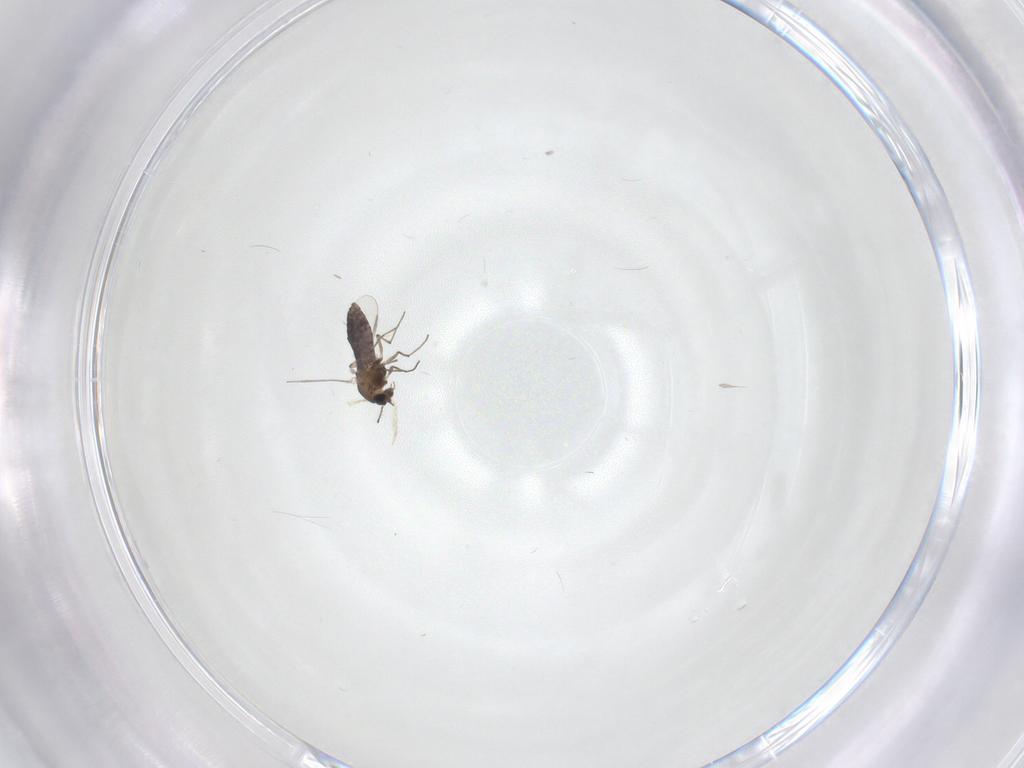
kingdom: Animalia
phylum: Arthropoda
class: Insecta
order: Diptera
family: Chironomidae
